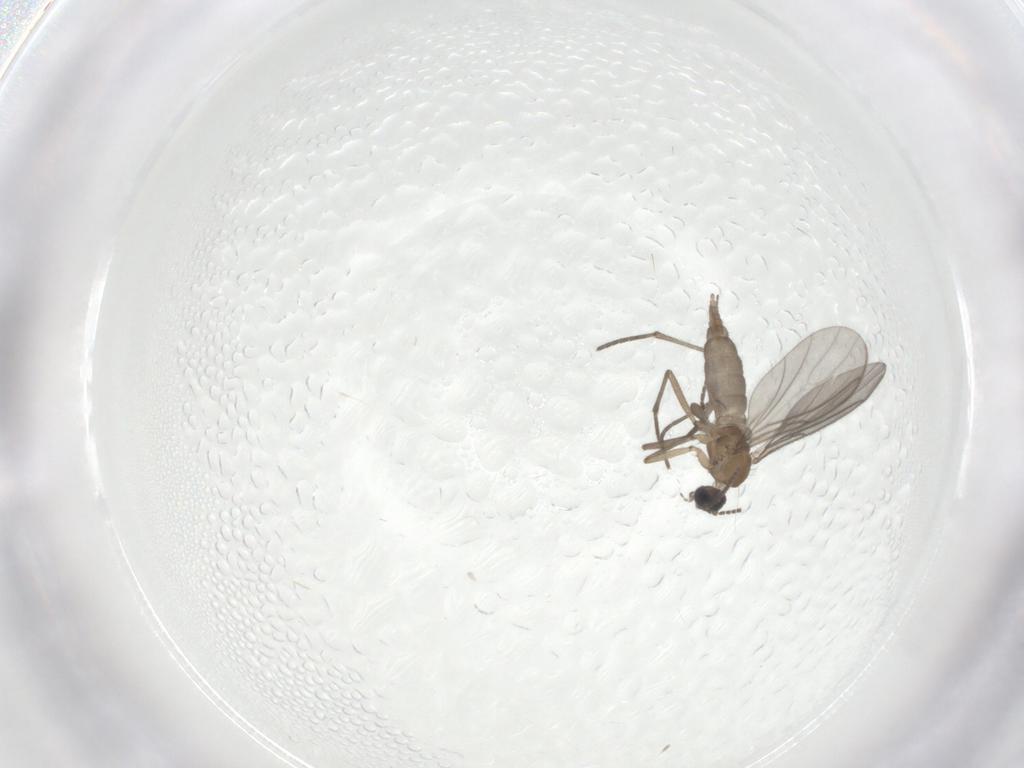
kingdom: Animalia
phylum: Arthropoda
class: Insecta
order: Diptera
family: Sciaridae
